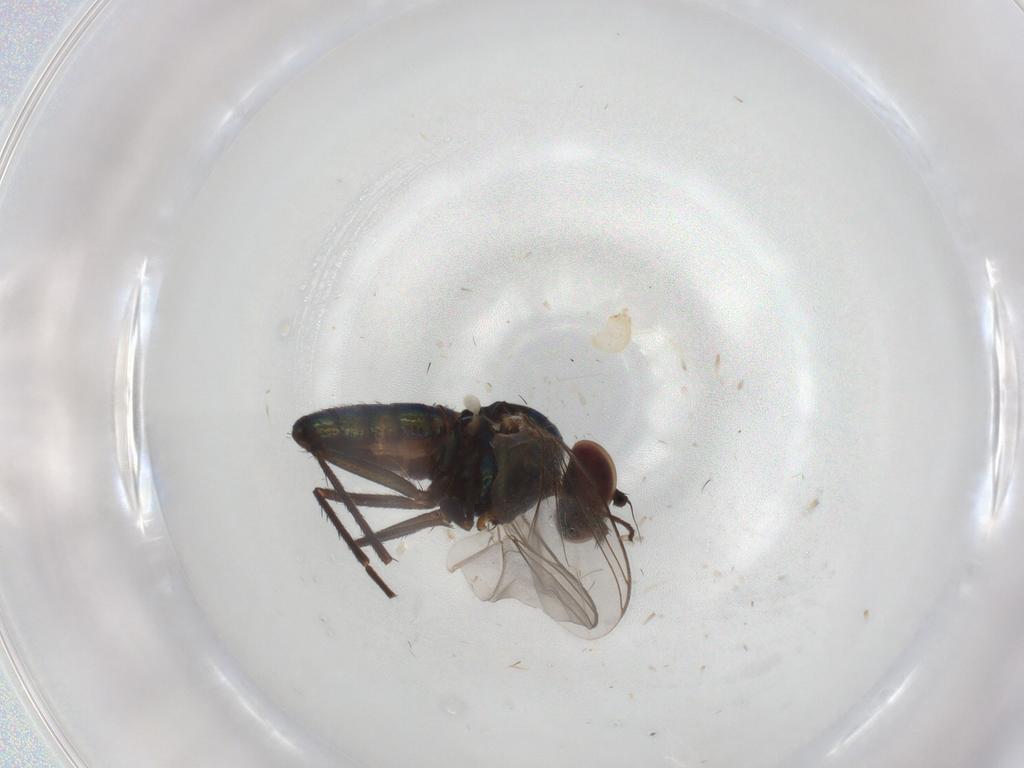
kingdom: Animalia
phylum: Arthropoda
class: Insecta
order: Diptera
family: Dolichopodidae
